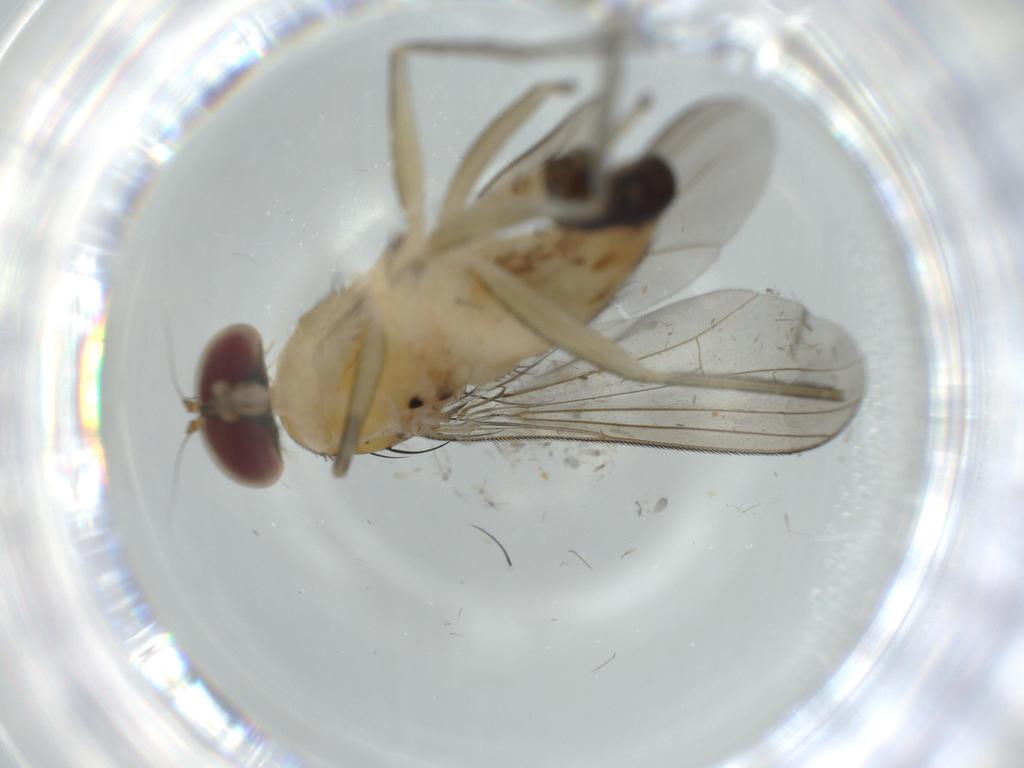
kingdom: Animalia
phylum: Arthropoda
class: Insecta
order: Diptera
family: Dolichopodidae
